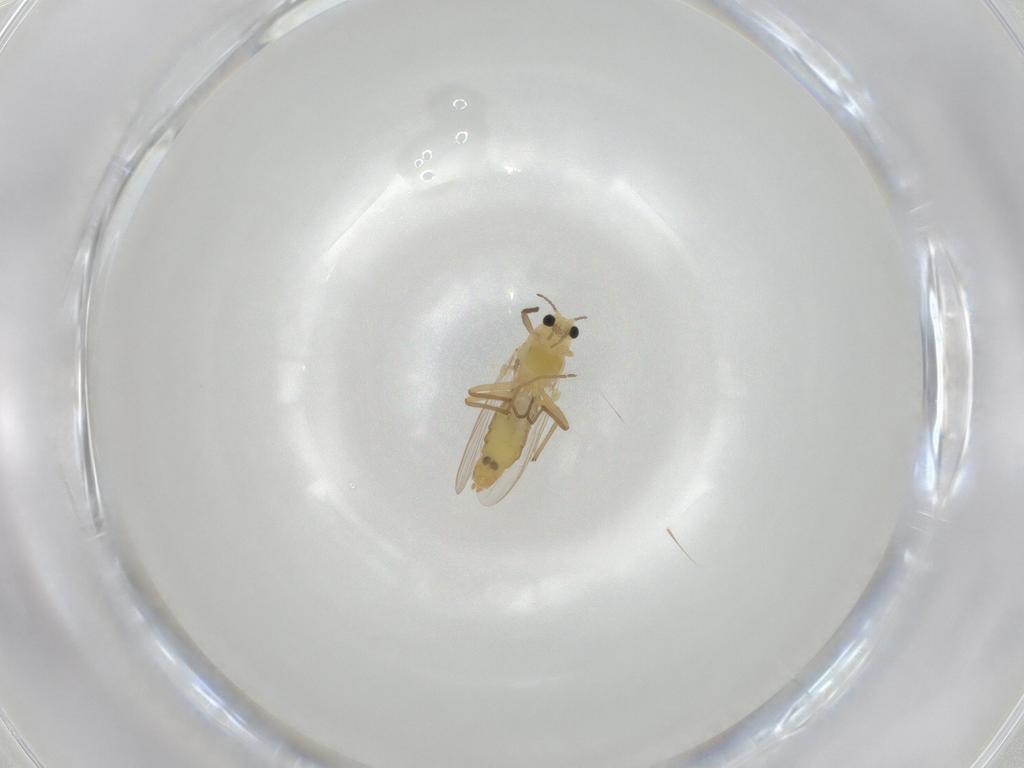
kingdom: Animalia
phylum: Arthropoda
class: Insecta
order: Diptera
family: Chironomidae
